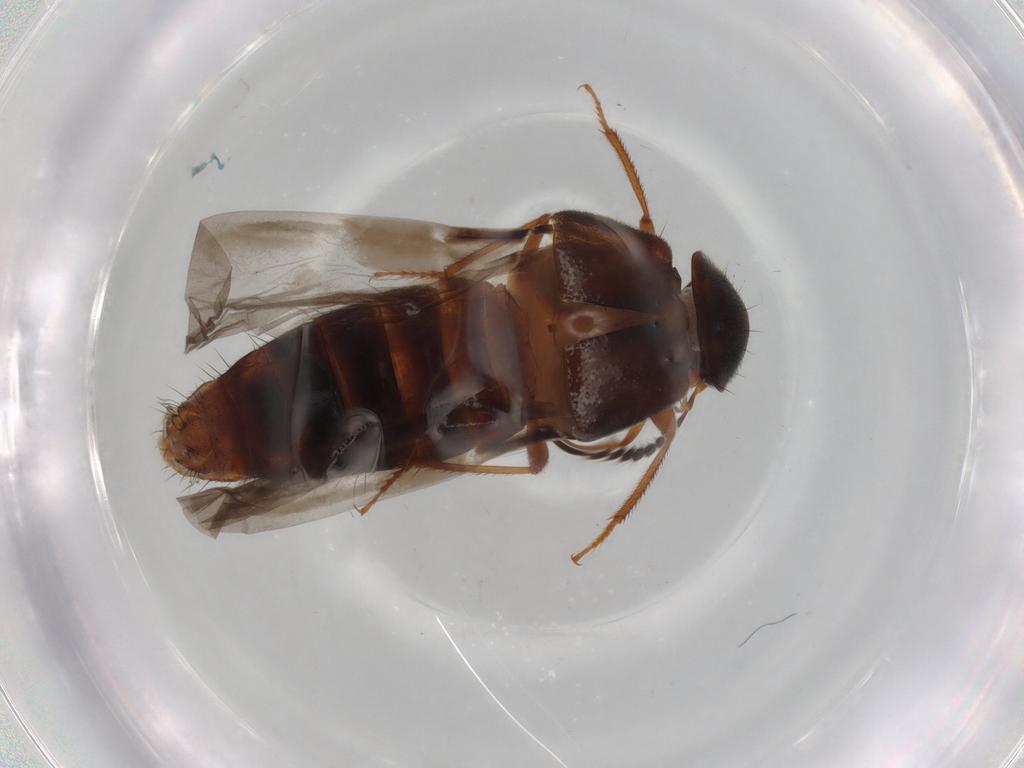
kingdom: Animalia
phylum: Arthropoda
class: Insecta
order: Coleoptera
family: Staphylinidae
